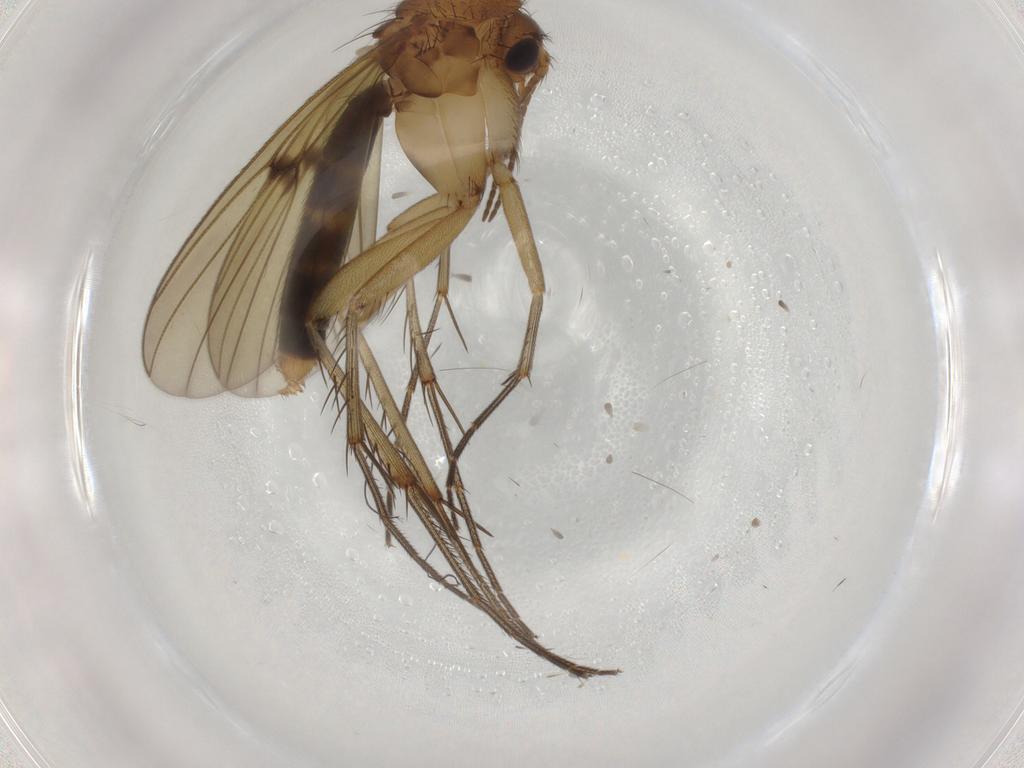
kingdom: Animalia
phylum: Arthropoda
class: Insecta
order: Diptera
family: Mycetophilidae
